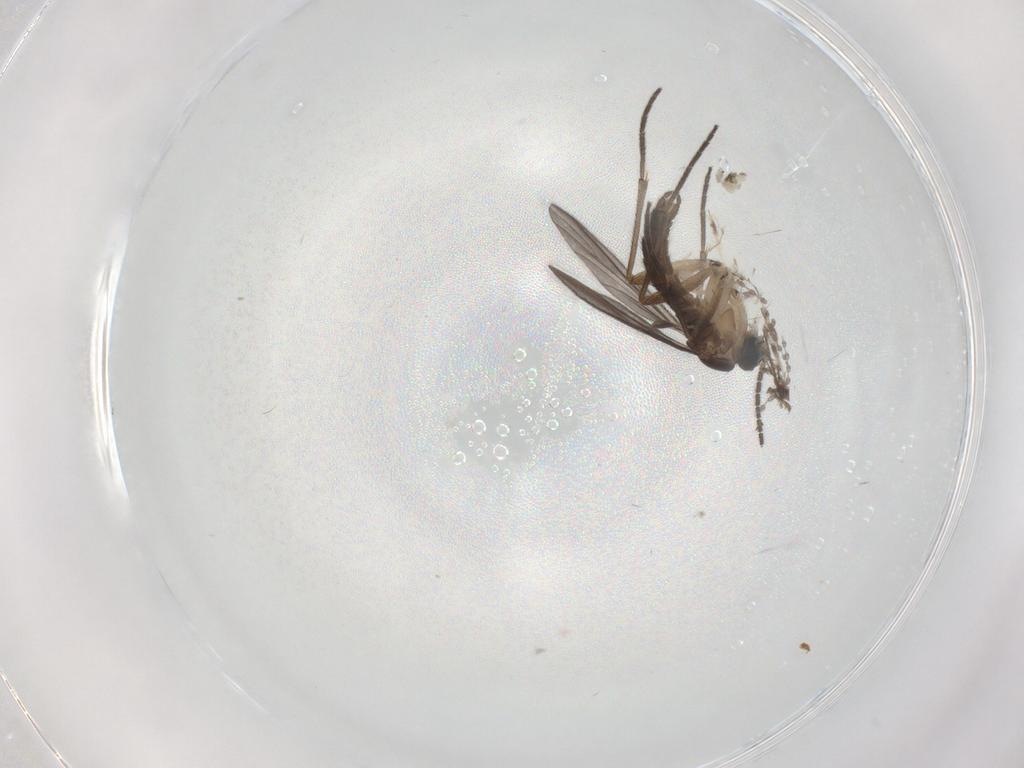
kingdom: Animalia
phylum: Arthropoda
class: Insecta
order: Diptera
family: Sciaridae
